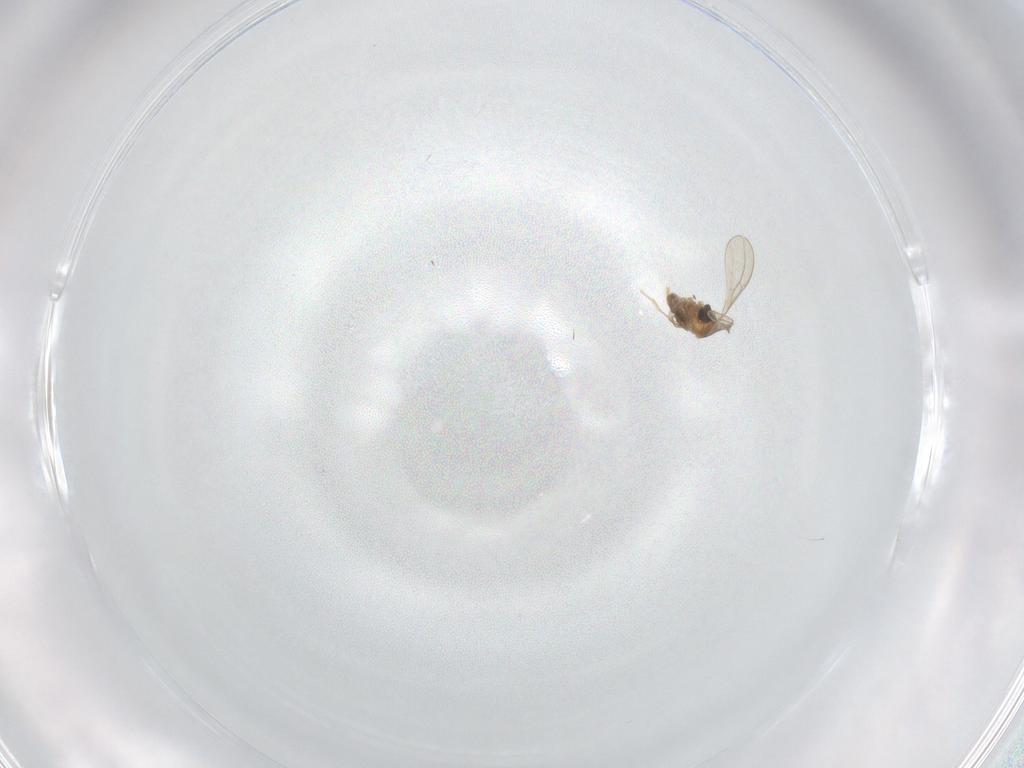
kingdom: Animalia
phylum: Arthropoda
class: Insecta
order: Diptera
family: Cecidomyiidae
